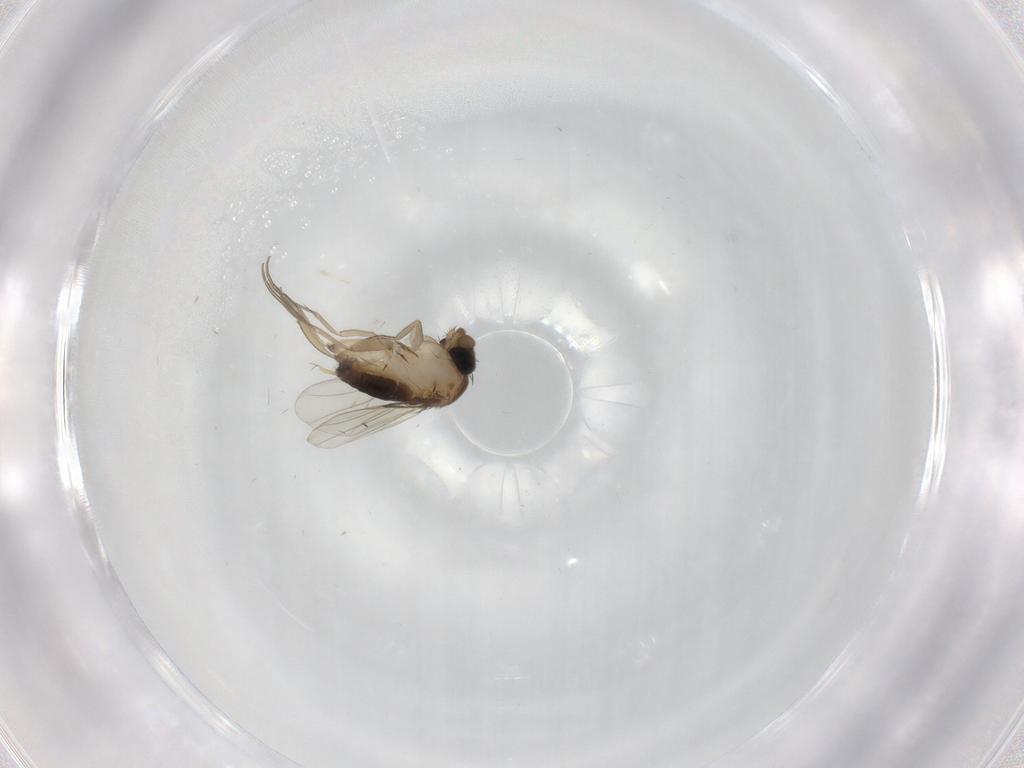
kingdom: Animalia
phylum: Arthropoda
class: Insecta
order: Diptera
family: Phoridae
